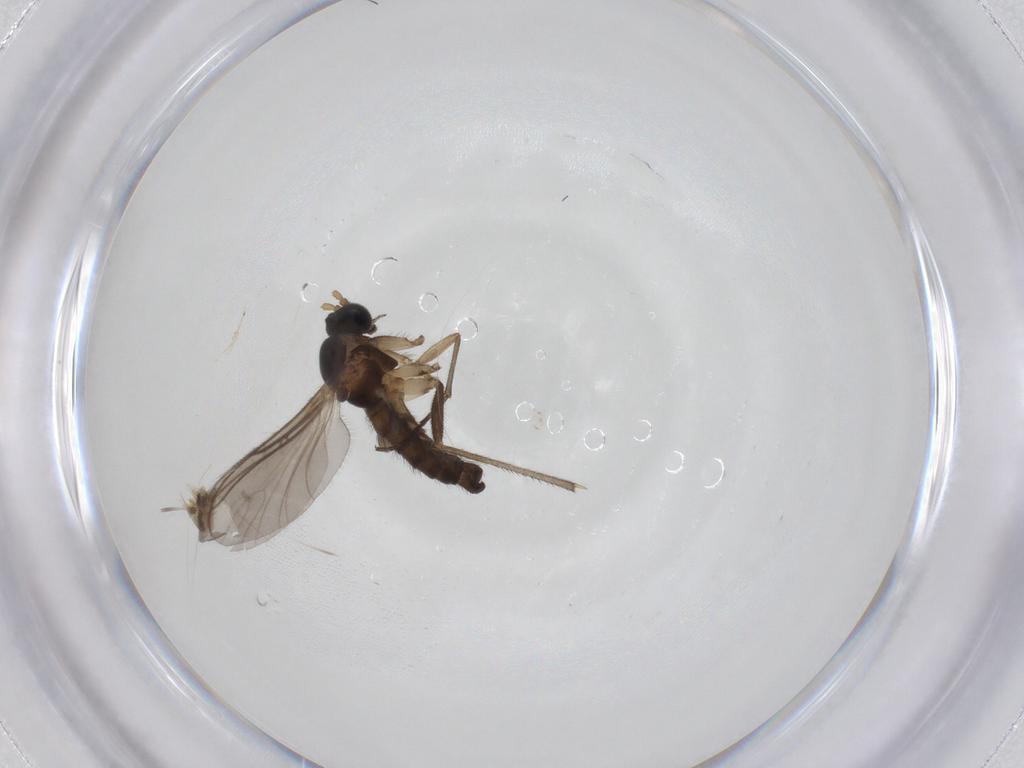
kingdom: Animalia
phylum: Arthropoda
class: Insecta
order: Diptera
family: Sciaridae
